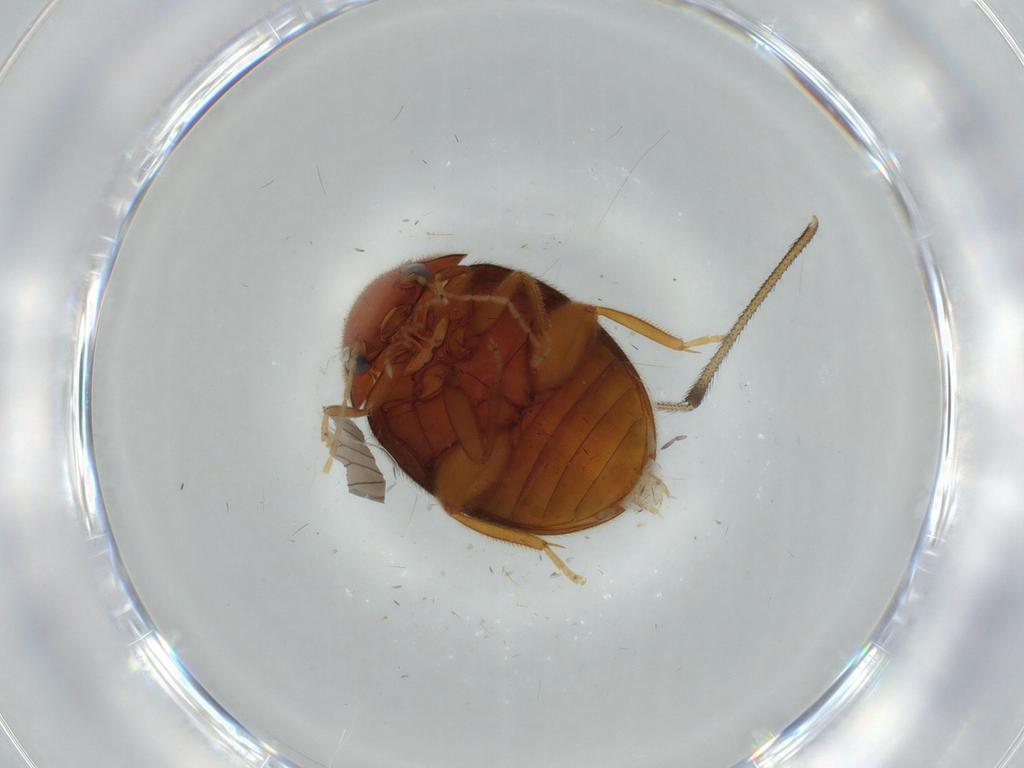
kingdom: Animalia
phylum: Arthropoda
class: Insecta
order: Coleoptera
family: Scirtidae
